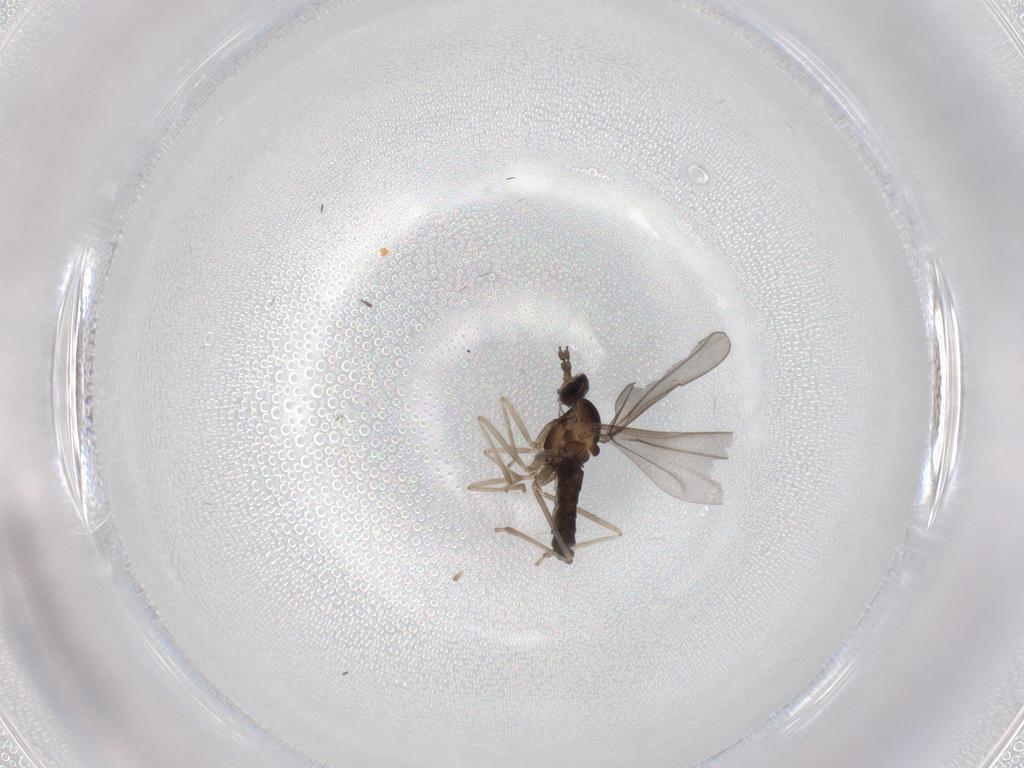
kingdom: Animalia
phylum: Arthropoda
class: Insecta
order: Diptera
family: Cecidomyiidae
